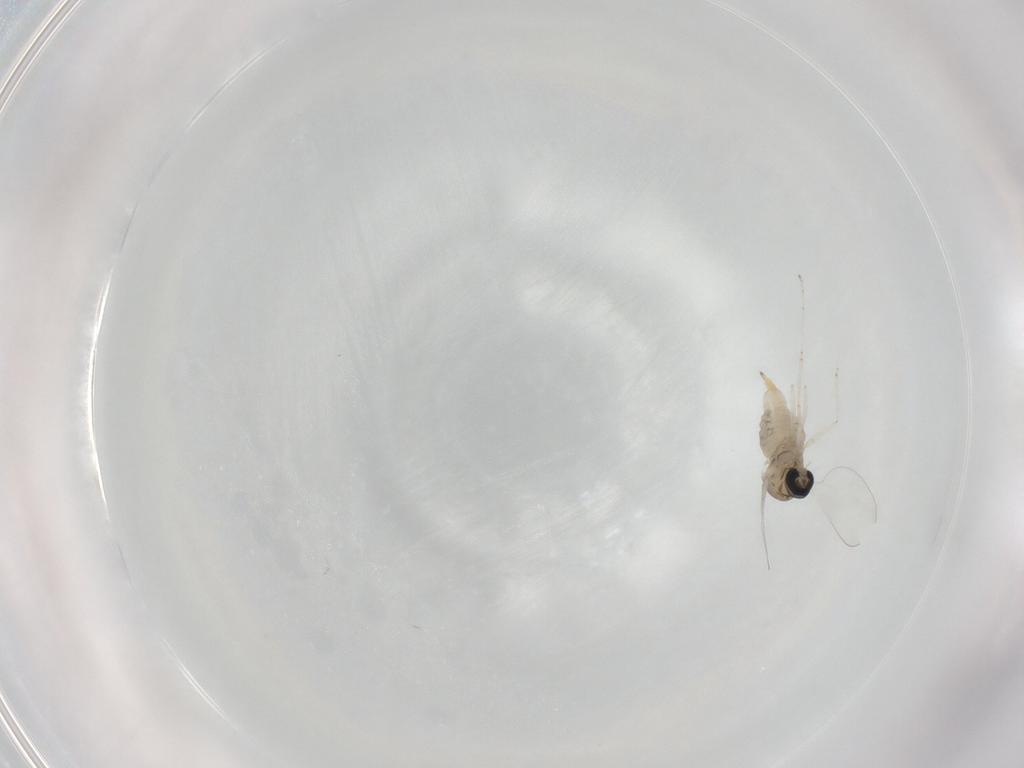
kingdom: Animalia
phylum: Arthropoda
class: Insecta
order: Diptera
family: Cecidomyiidae
